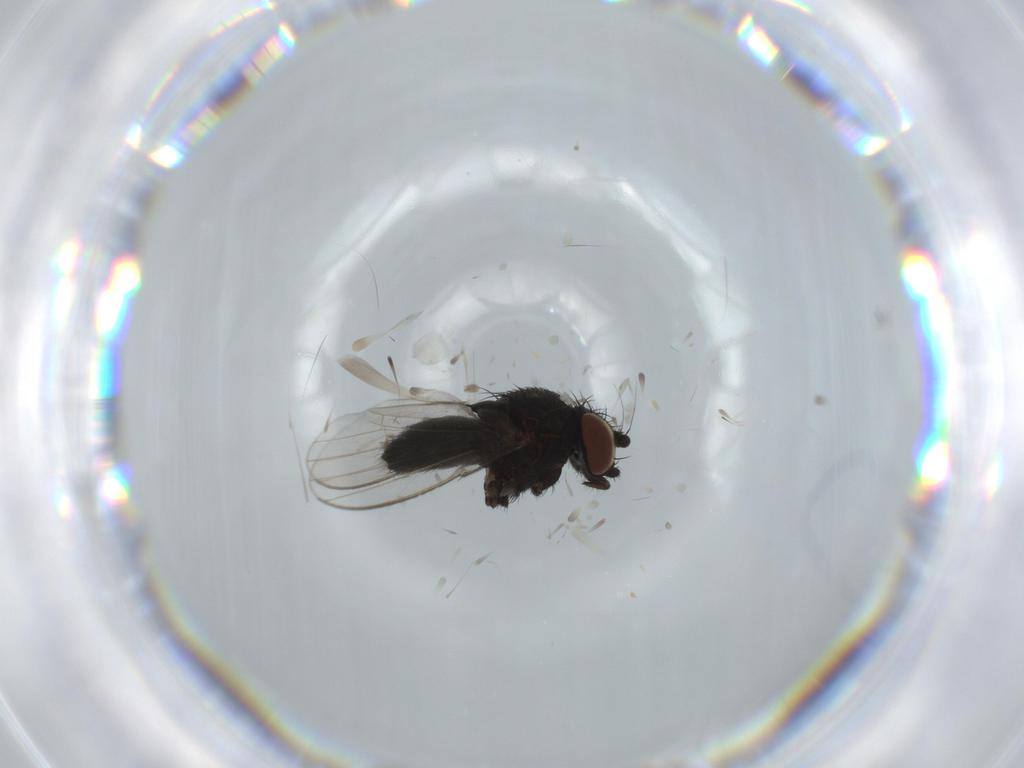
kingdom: Animalia
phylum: Arthropoda
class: Insecta
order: Diptera
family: Milichiidae
